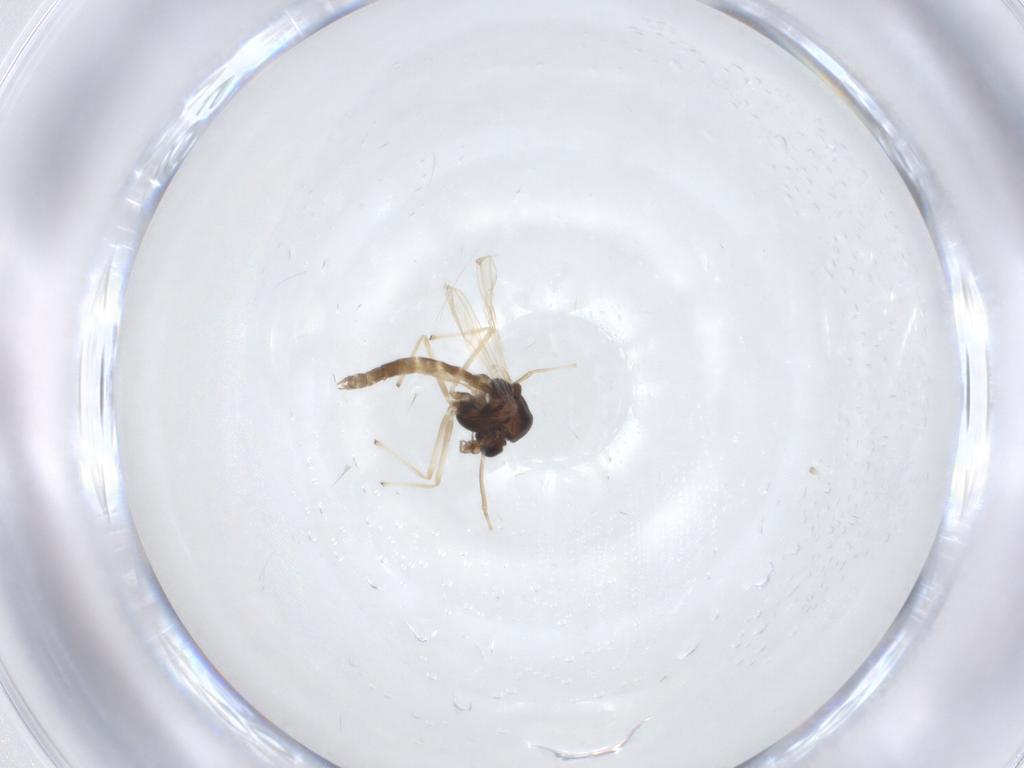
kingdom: Animalia
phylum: Arthropoda
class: Insecta
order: Diptera
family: Chironomidae
